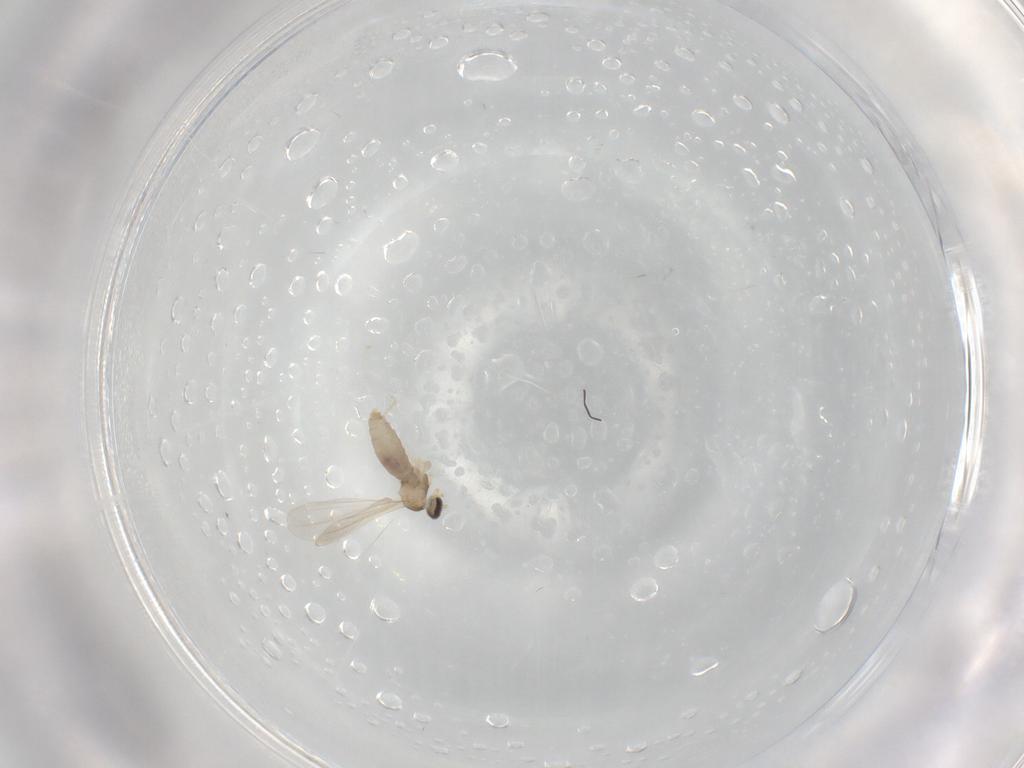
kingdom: Animalia
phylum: Arthropoda
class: Insecta
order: Diptera
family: Cecidomyiidae
